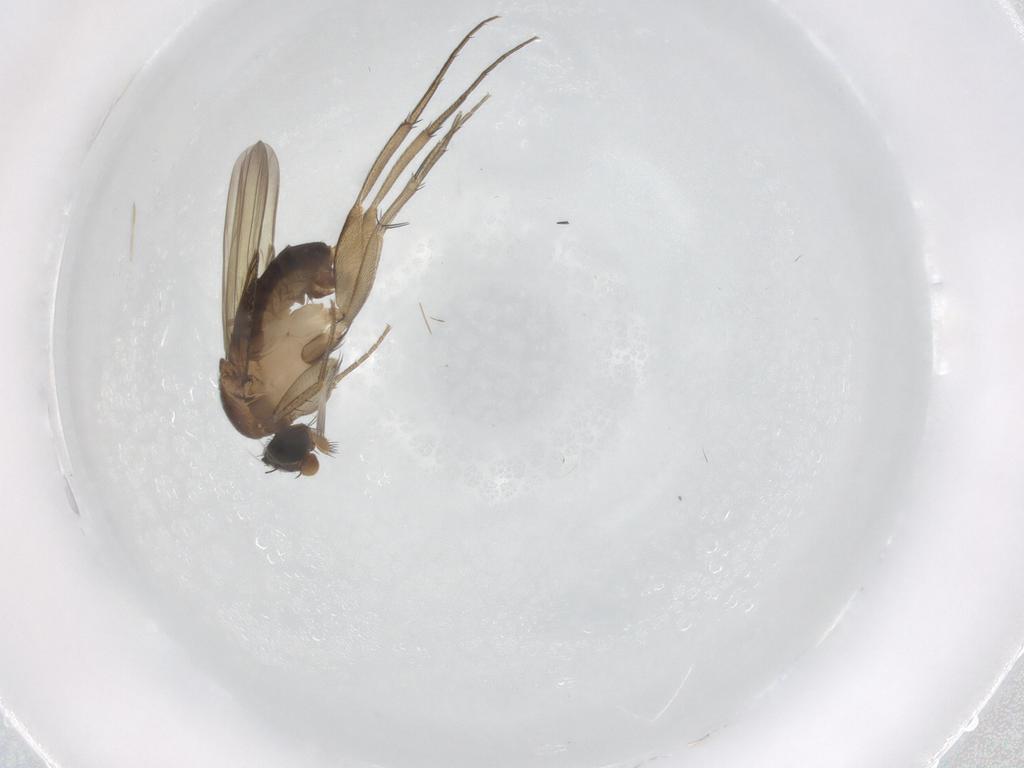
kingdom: Animalia
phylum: Arthropoda
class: Insecta
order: Diptera
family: Phoridae
